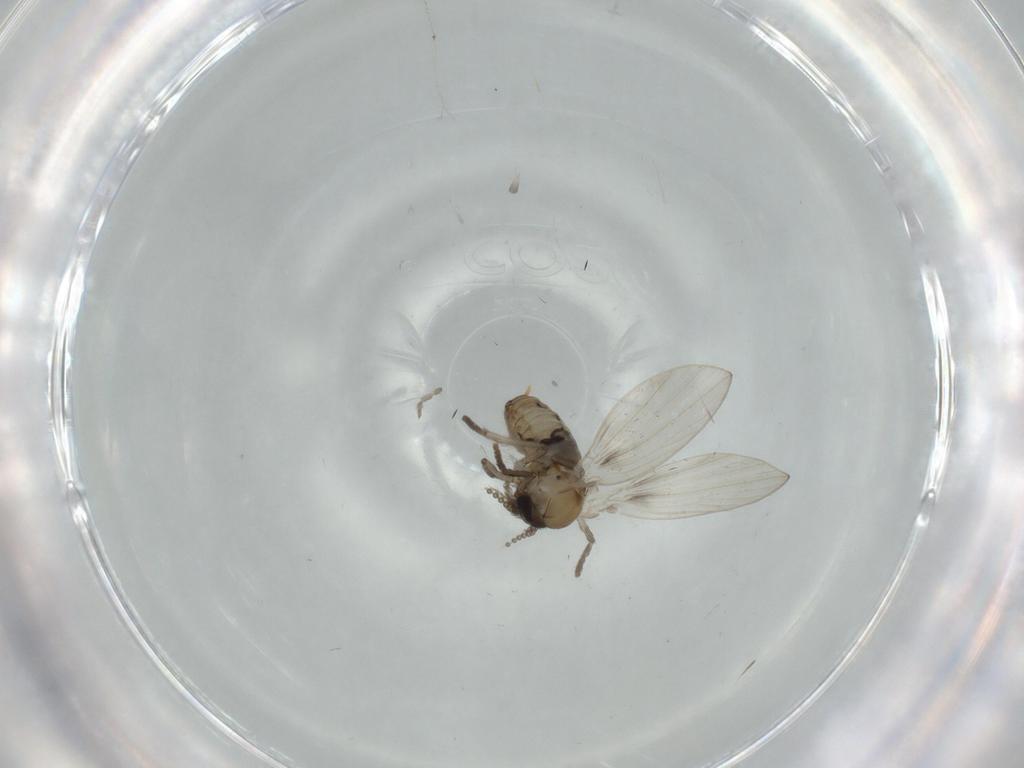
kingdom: Animalia
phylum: Arthropoda
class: Insecta
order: Diptera
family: Psychodidae
